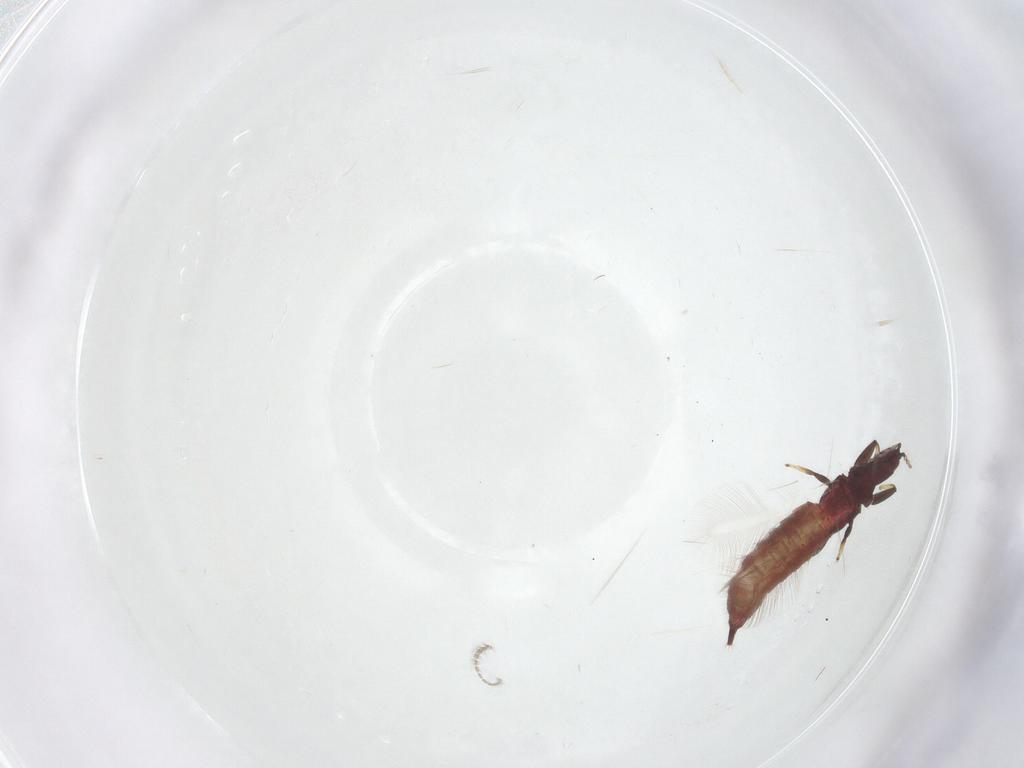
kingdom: Animalia
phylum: Arthropoda
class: Insecta
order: Thysanoptera
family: Phlaeothripidae
